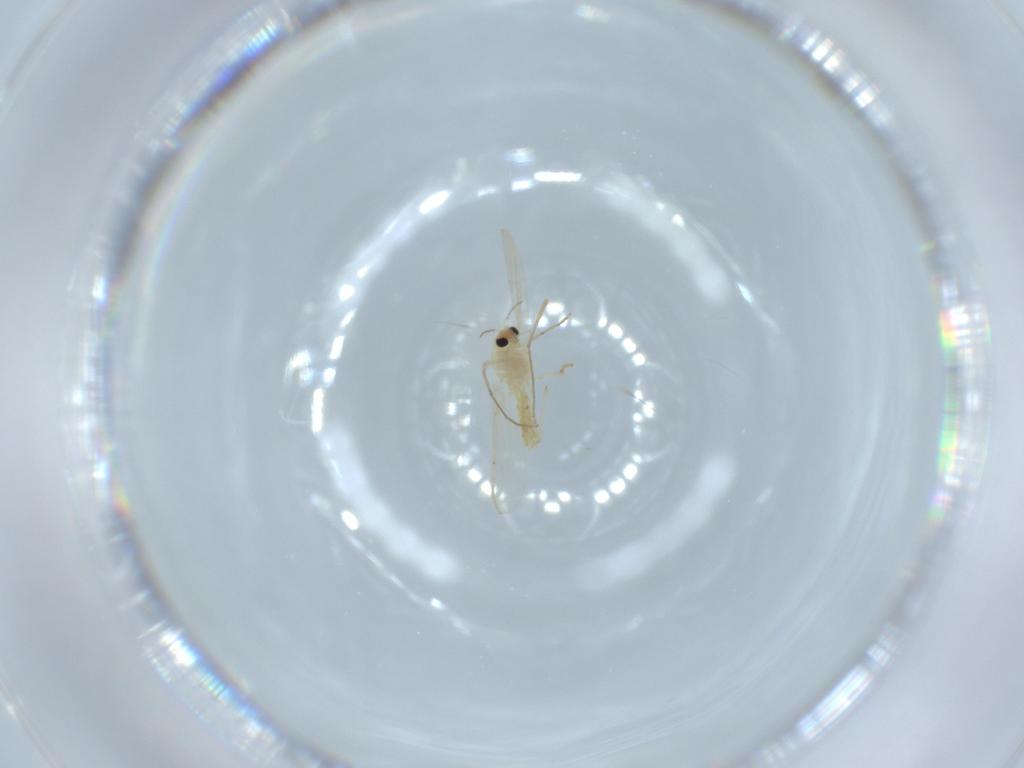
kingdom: Animalia
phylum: Arthropoda
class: Insecta
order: Diptera
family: Chironomidae
